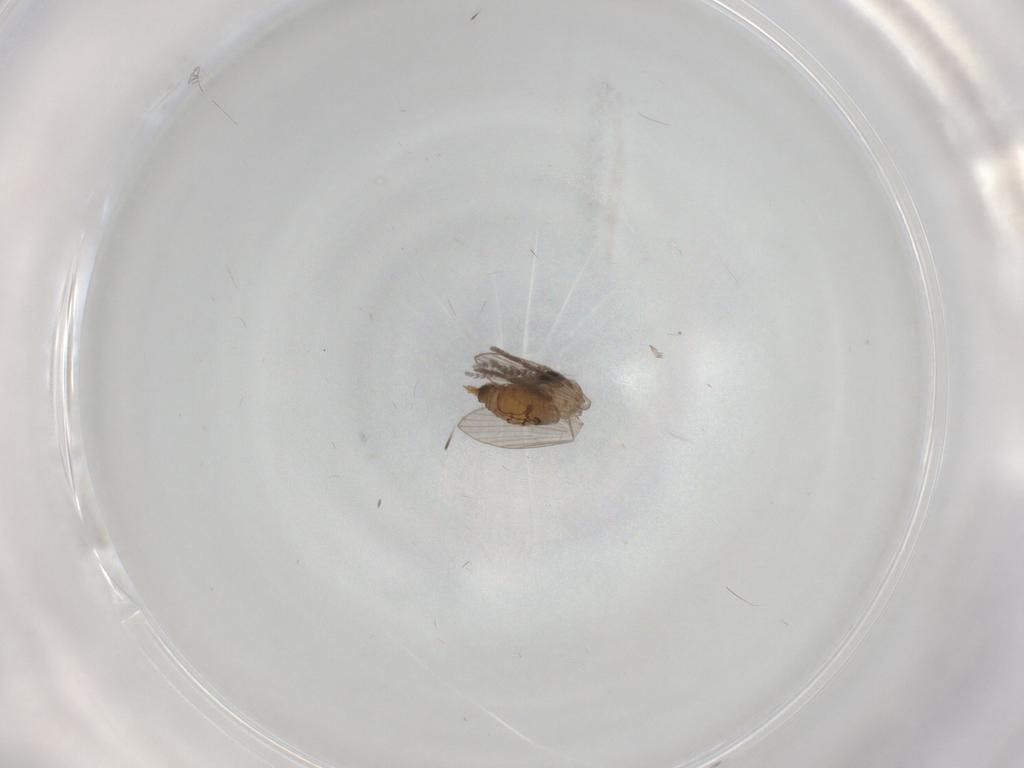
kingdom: Animalia
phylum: Arthropoda
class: Insecta
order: Diptera
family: Psychodidae
